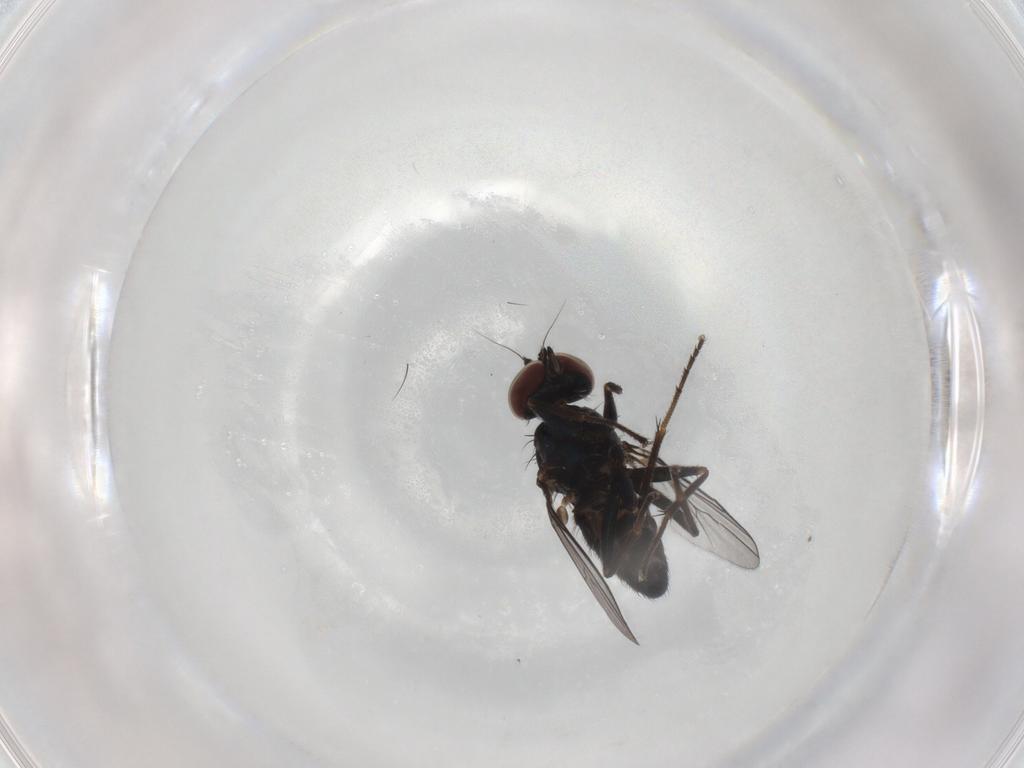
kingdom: Animalia
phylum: Arthropoda
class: Insecta
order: Diptera
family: Dolichopodidae
